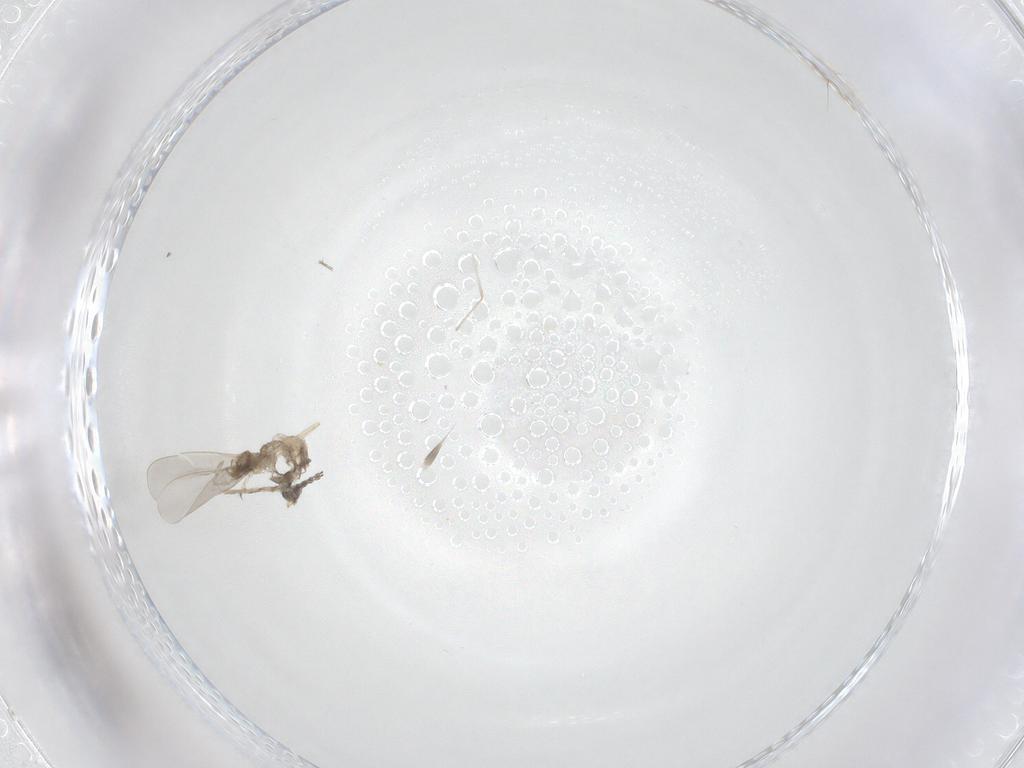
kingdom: Animalia
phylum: Arthropoda
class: Insecta
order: Diptera
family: Cecidomyiidae
